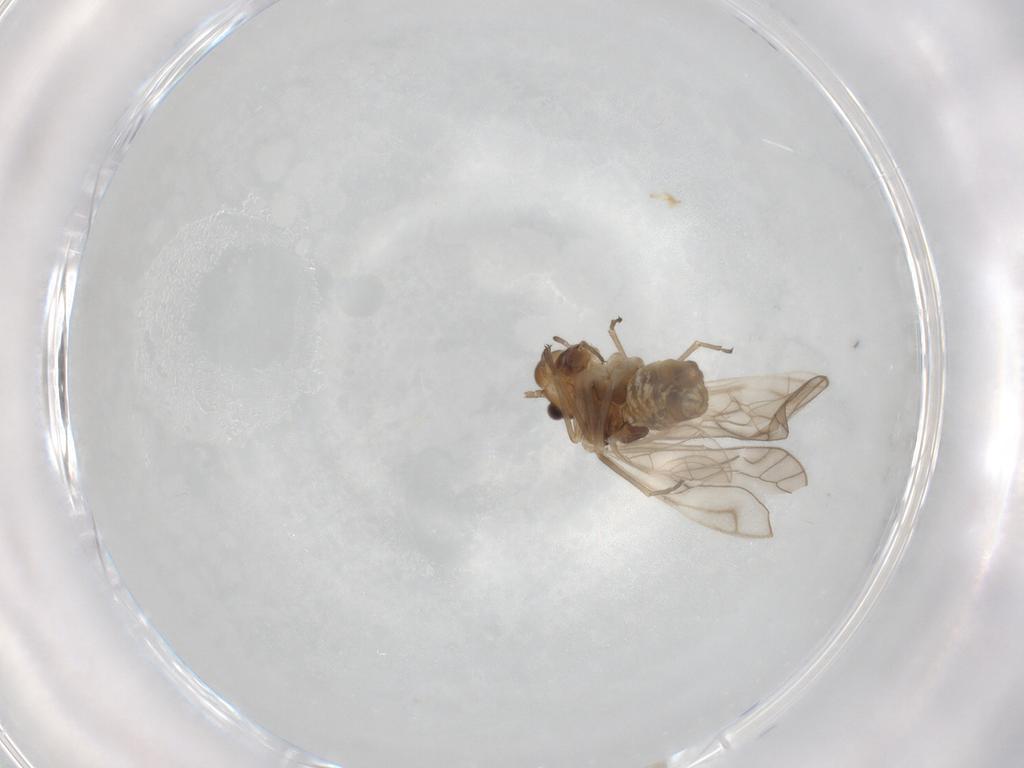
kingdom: Animalia
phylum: Arthropoda
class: Insecta
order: Psocodea
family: Philotarsidae
